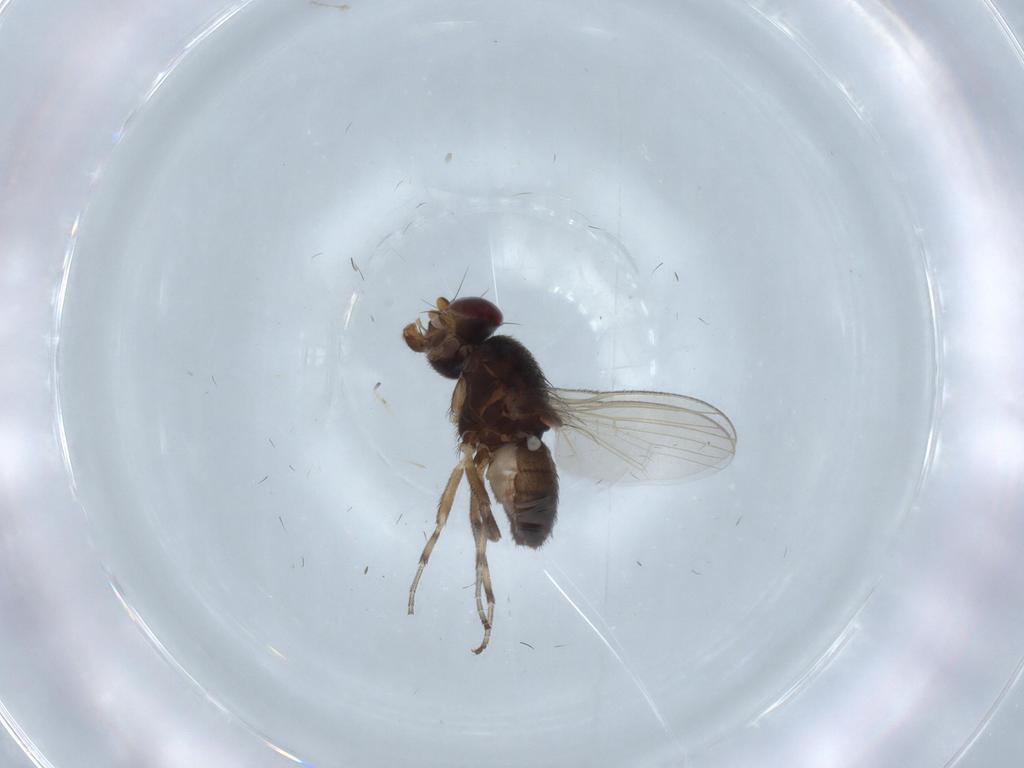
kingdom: Animalia
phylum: Arthropoda
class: Insecta
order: Diptera
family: Heleomyzidae
